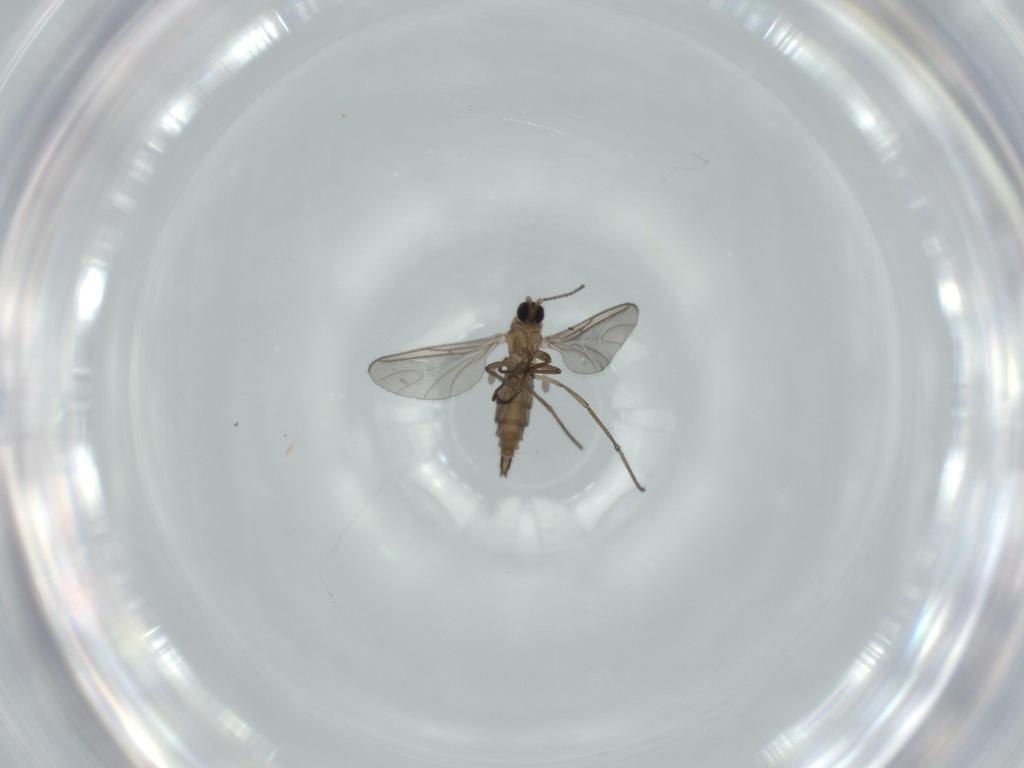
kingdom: Animalia
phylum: Arthropoda
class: Insecta
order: Diptera
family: Sciaridae
